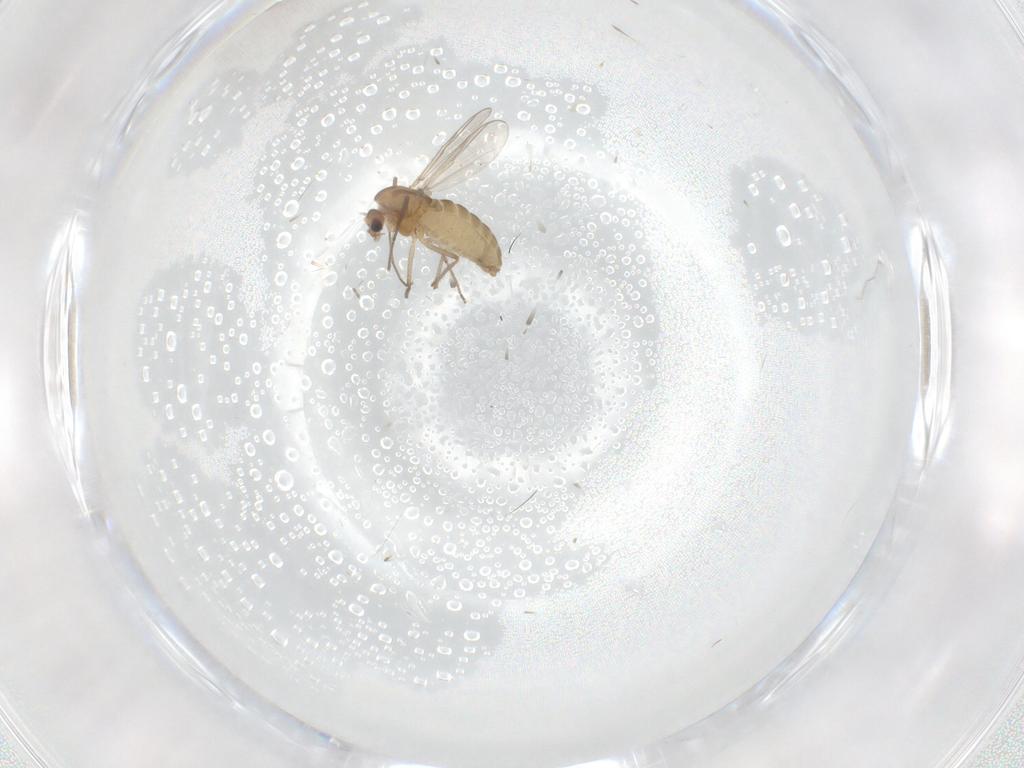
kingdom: Animalia
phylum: Arthropoda
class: Insecta
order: Diptera
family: Chironomidae
